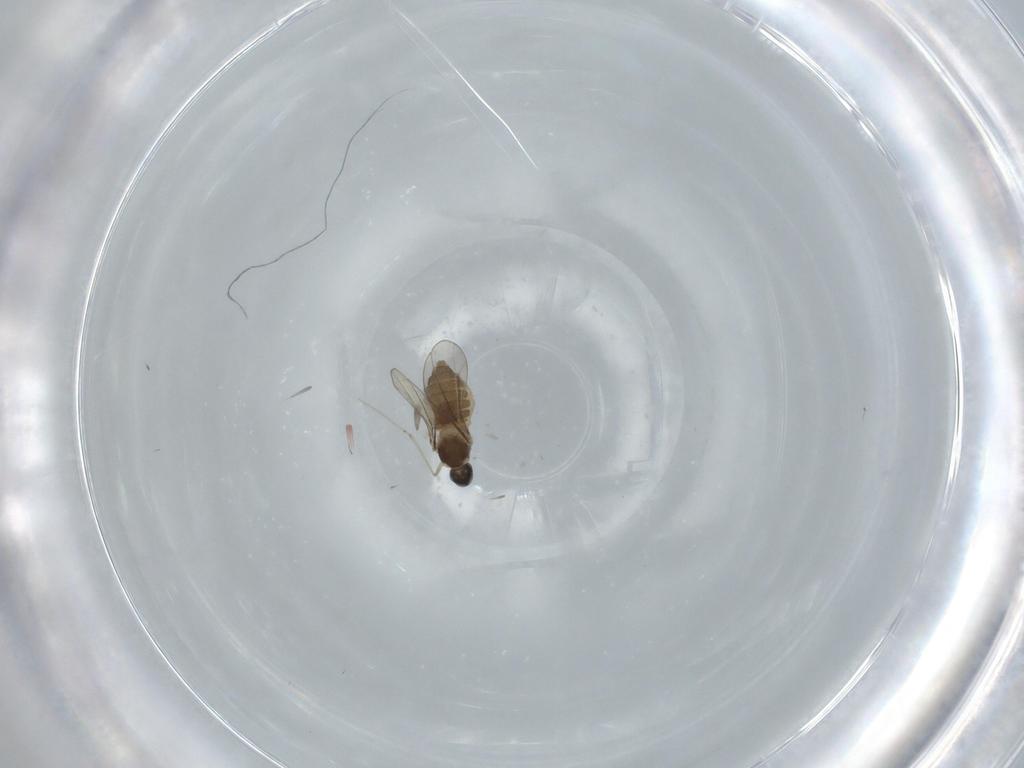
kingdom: Animalia
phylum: Arthropoda
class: Insecta
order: Diptera
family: Cecidomyiidae
